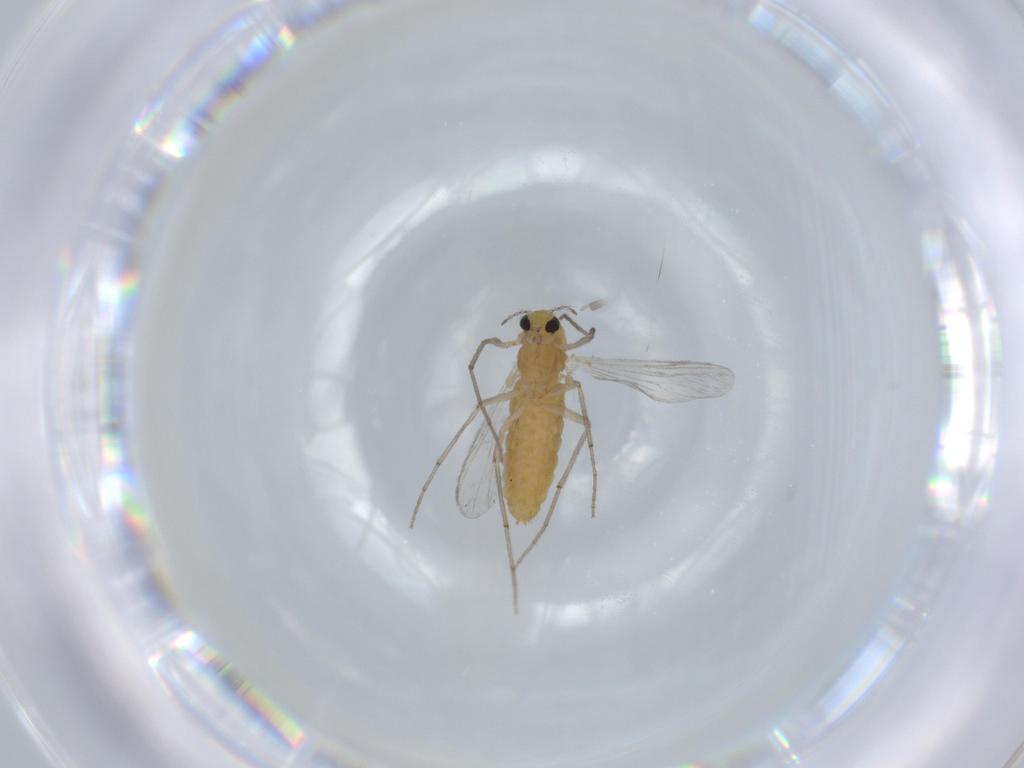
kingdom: Animalia
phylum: Arthropoda
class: Insecta
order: Diptera
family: Chironomidae
